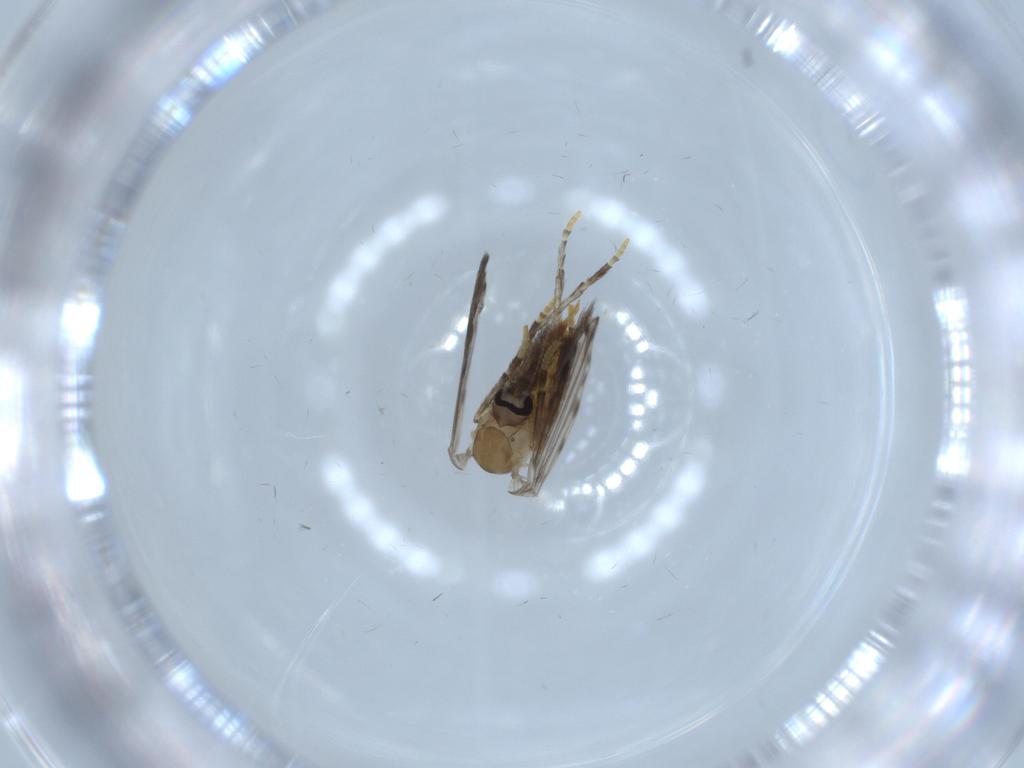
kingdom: Animalia
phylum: Arthropoda
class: Insecta
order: Diptera
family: Psychodidae
